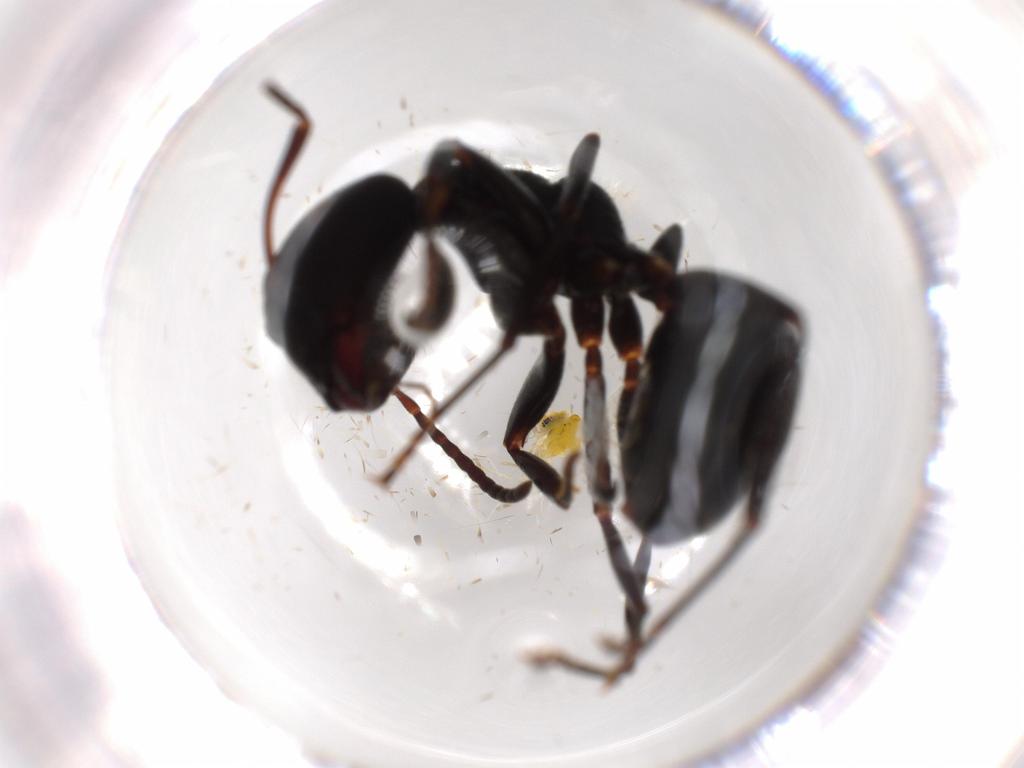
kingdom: Animalia
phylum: Arthropoda
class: Insecta
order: Hymenoptera
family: Formicidae
